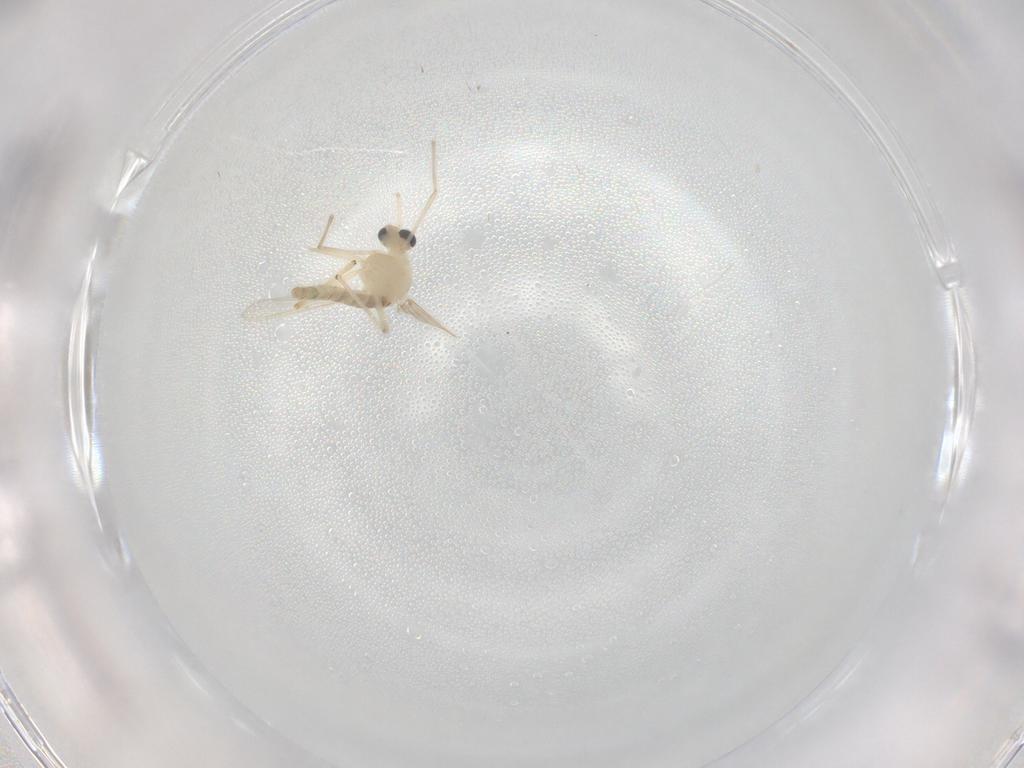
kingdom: Animalia
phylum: Arthropoda
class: Insecta
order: Diptera
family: Chironomidae
